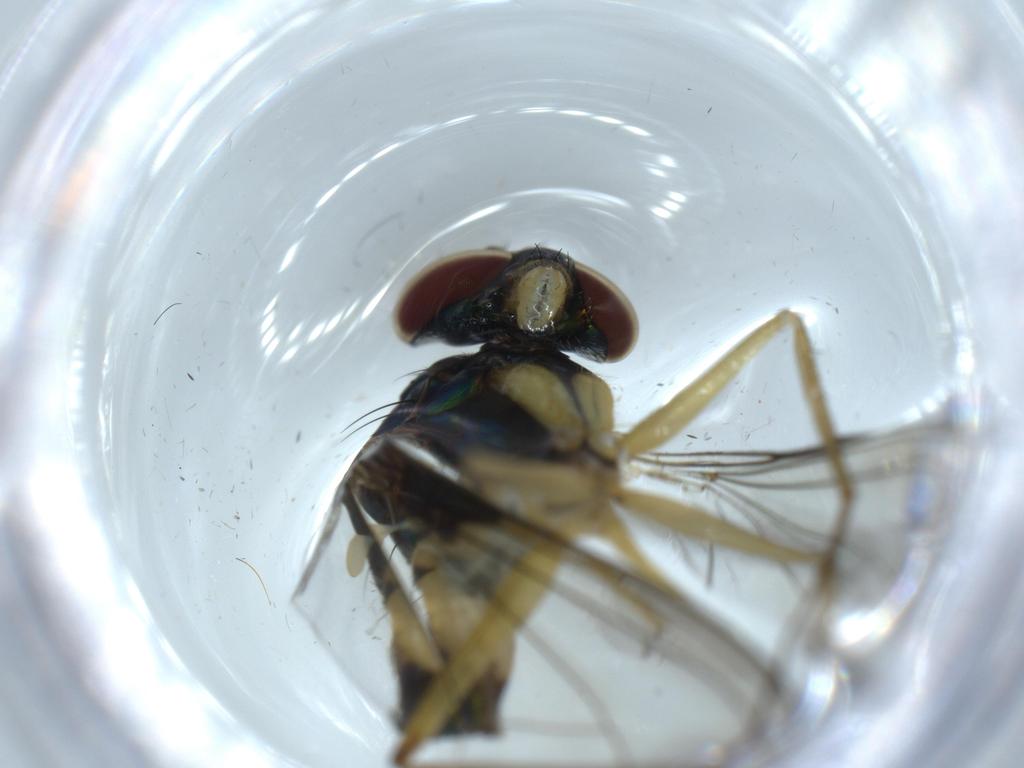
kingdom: Animalia
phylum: Arthropoda
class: Insecta
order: Diptera
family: Dolichopodidae
